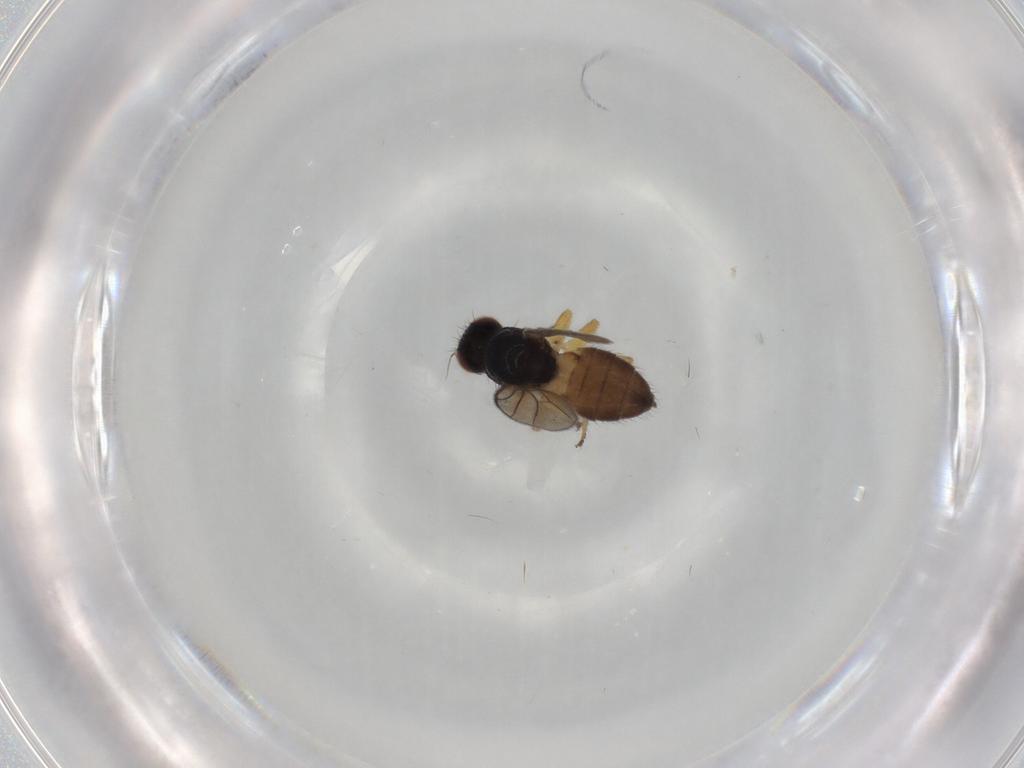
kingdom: Animalia
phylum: Arthropoda
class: Insecta
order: Diptera
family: Chloropidae
